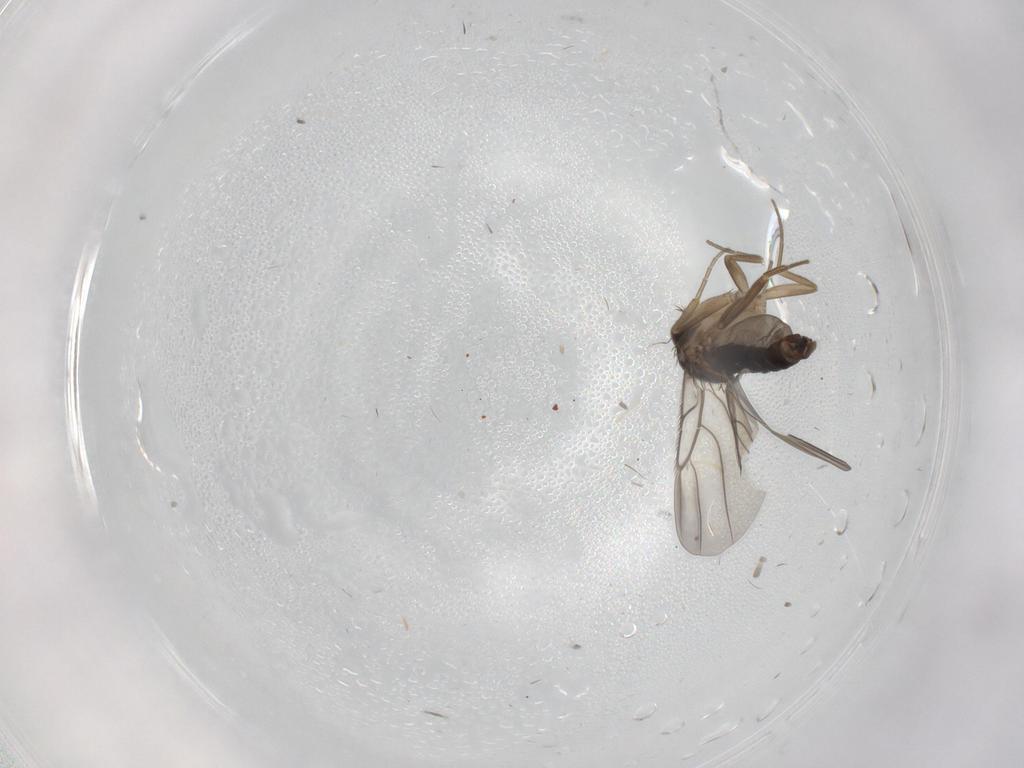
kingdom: Animalia
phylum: Arthropoda
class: Insecta
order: Diptera
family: Phoridae
